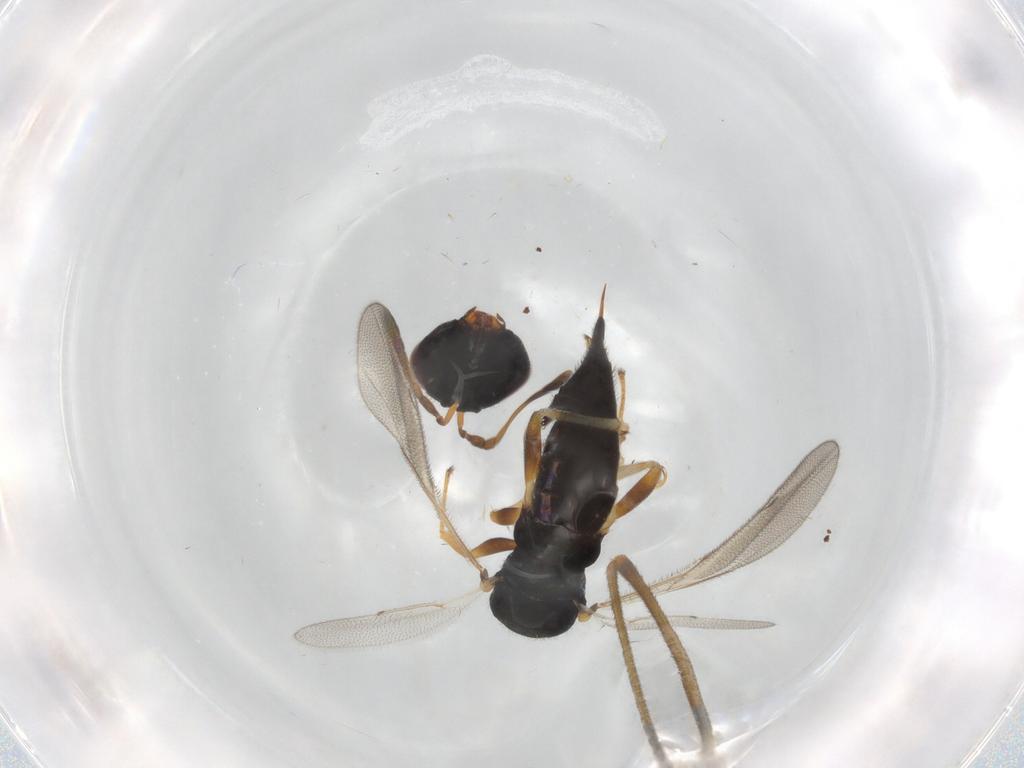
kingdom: Animalia
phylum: Arthropoda
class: Insecta
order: Hymenoptera
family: Pteromalidae
